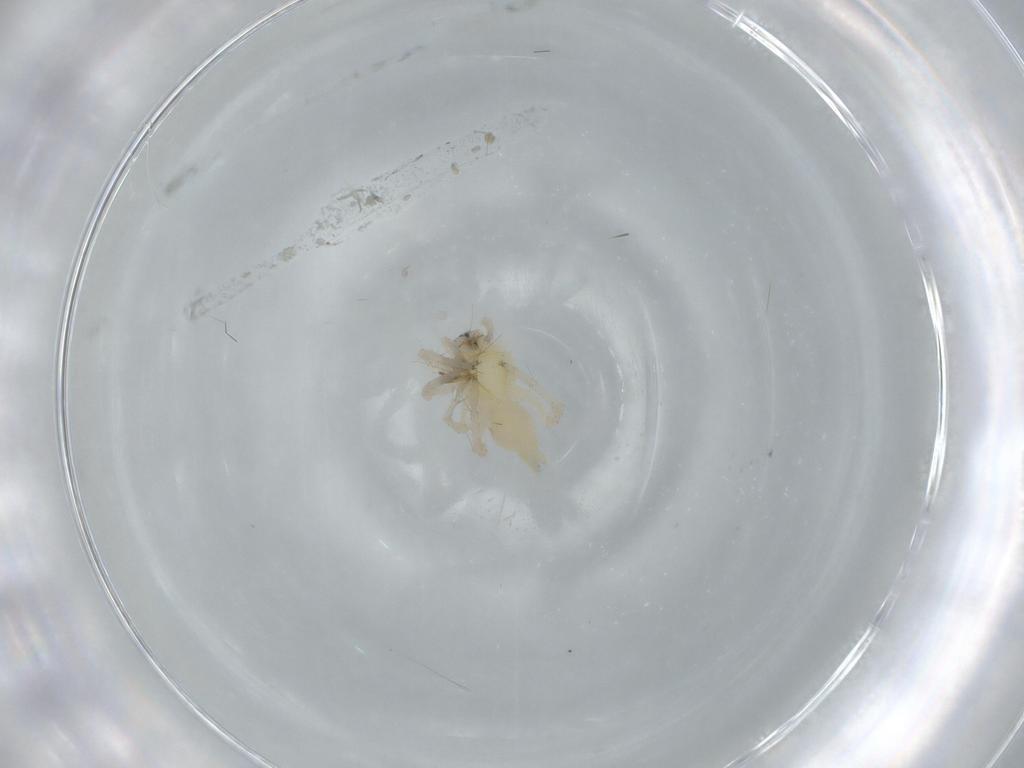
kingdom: Animalia
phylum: Arthropoda
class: Arachnida
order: Araneae
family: Anyphaenidae
